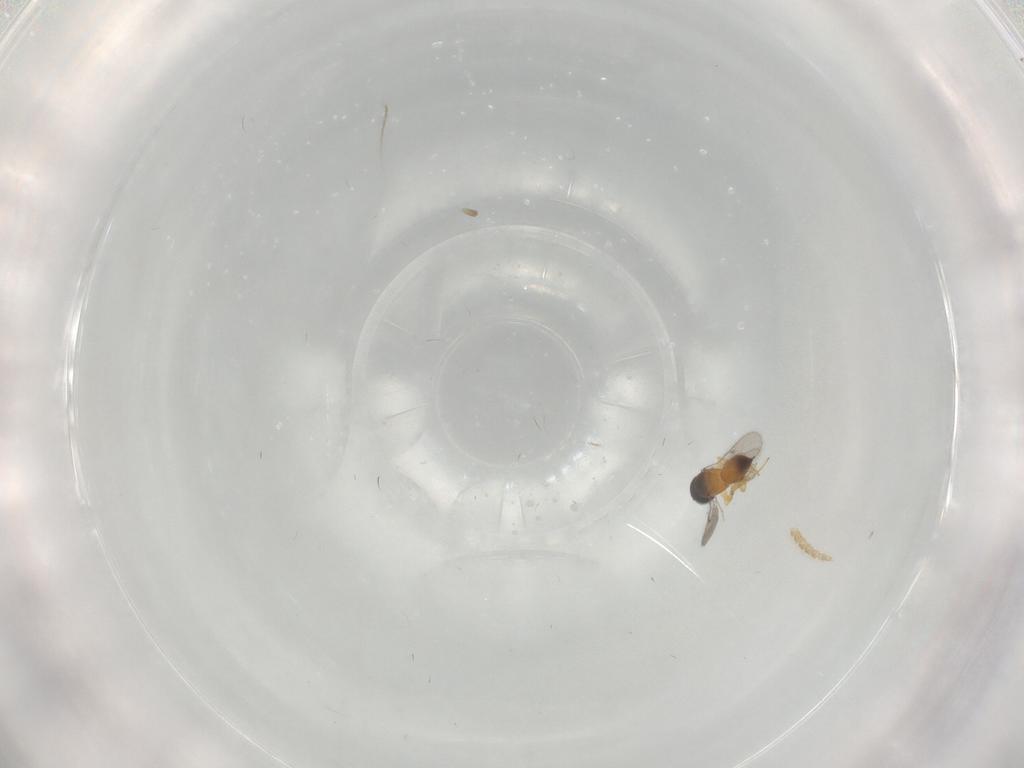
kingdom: Animalia
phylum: Arthropoda
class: Insecta
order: Hymenoptera
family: Scelionidae
